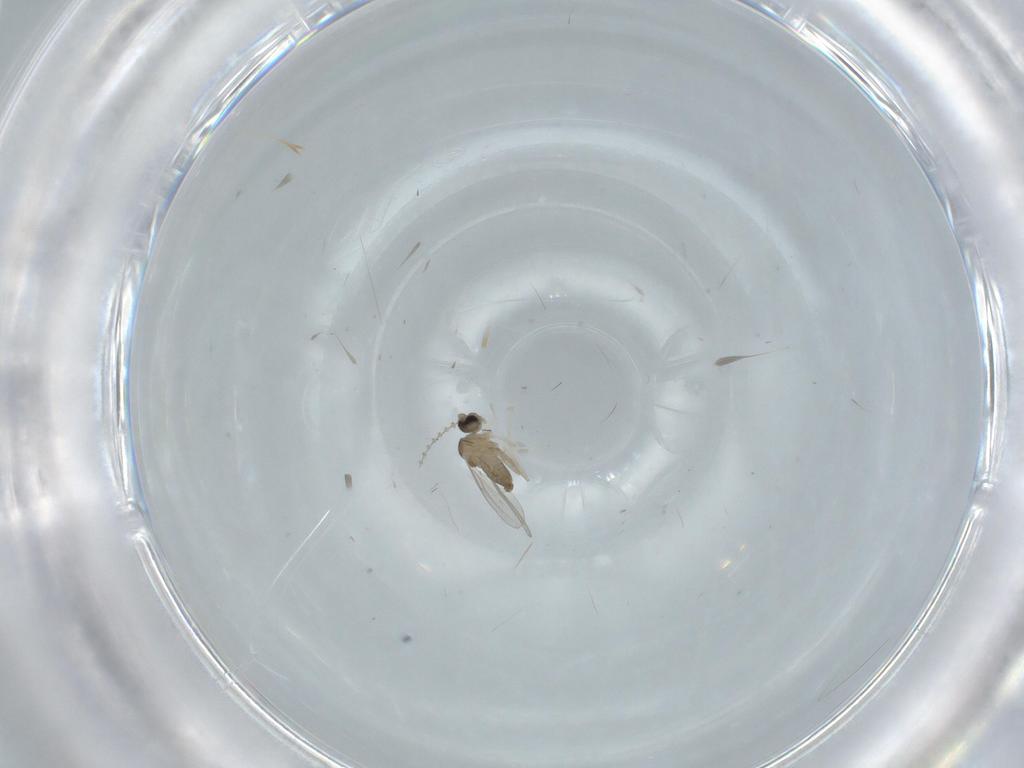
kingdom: Animalia
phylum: Arthropoda
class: Insecta
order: Diptera
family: Cecidomyiidae
